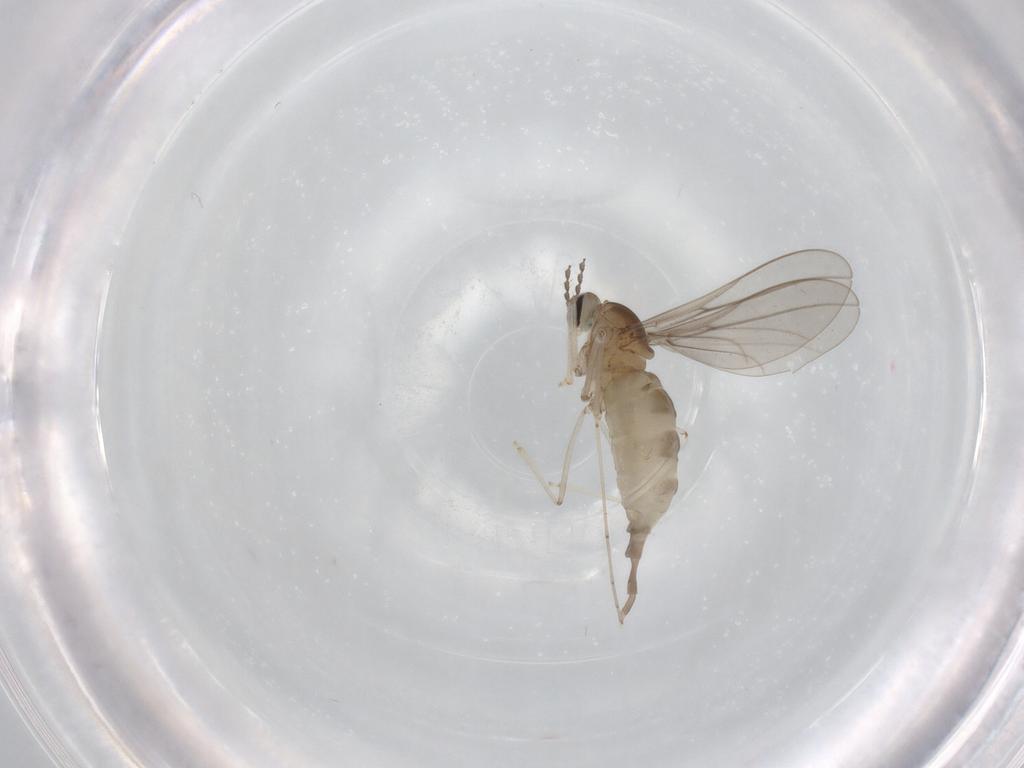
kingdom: Animalia
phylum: Arthropoda
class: Insecta
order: Diptera
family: Cecidomyiidae
